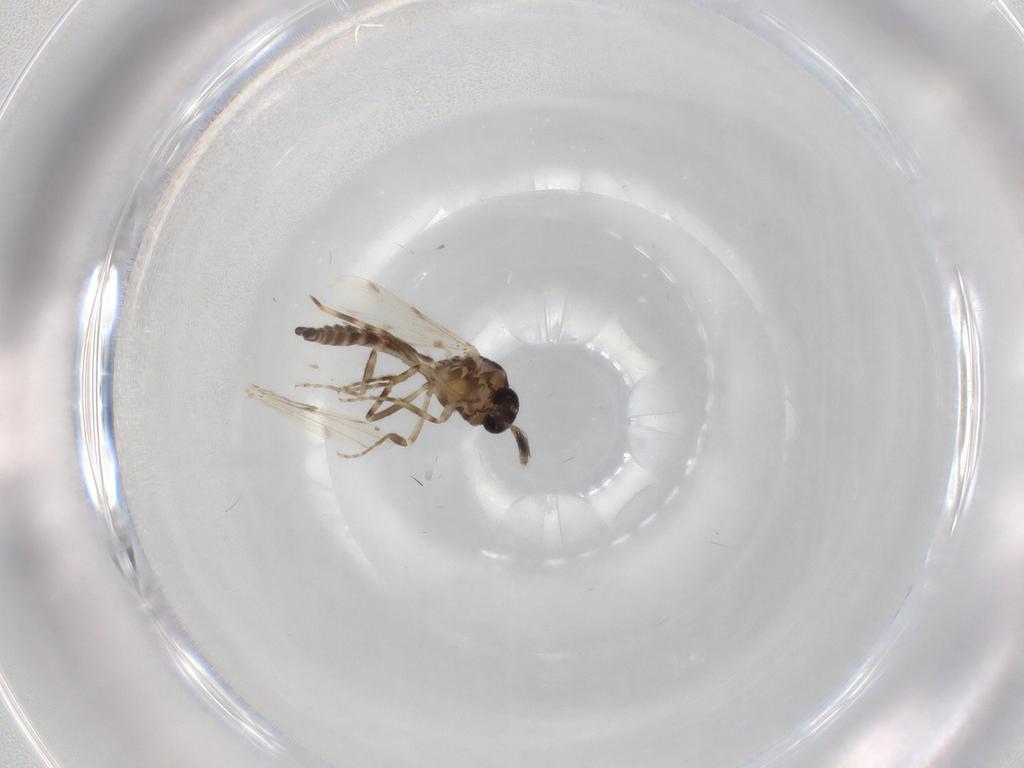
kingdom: Animalia
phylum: Arthropoda
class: Insecta
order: Diptera
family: Ceratopogonidae
